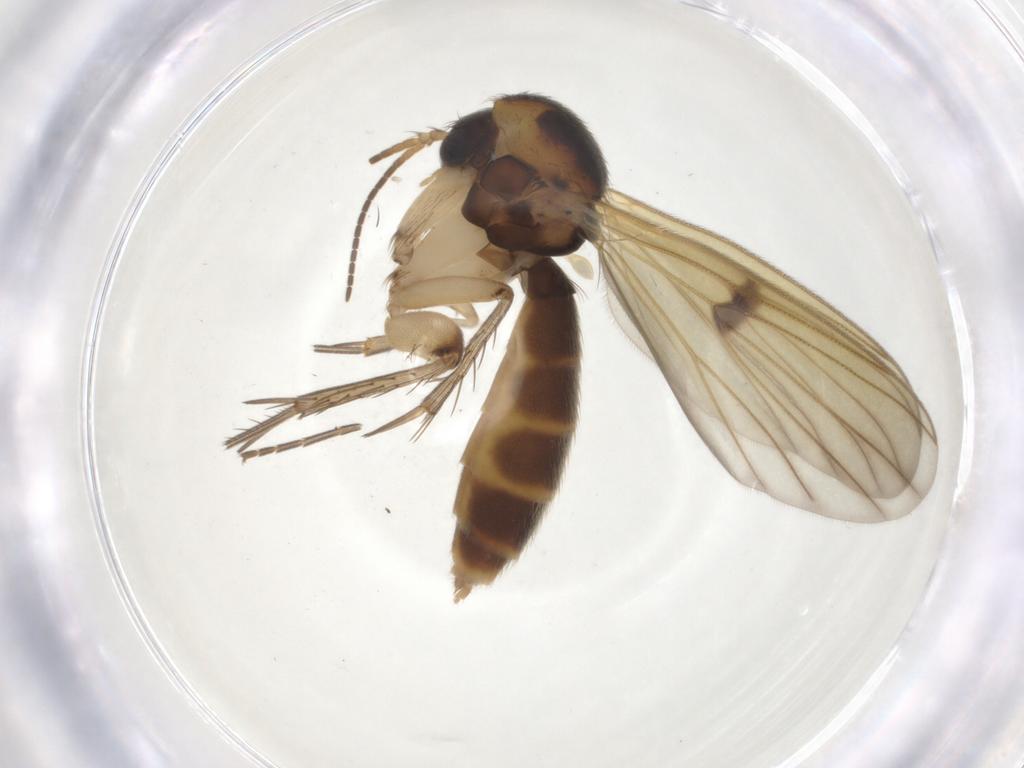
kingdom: Animalia
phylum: Arthropoda
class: Insecta
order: Diptera
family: Mycetophilidae
